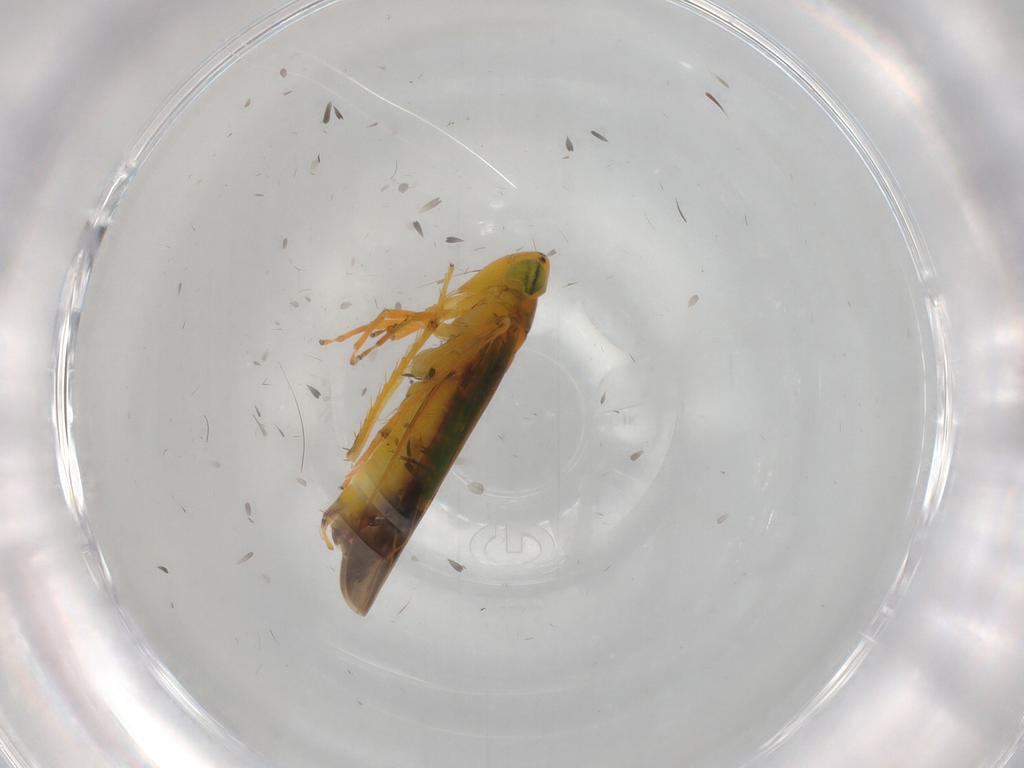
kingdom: Animalia
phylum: Arthropoda
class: Insecta
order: Hemiptera
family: Cicadellidae
